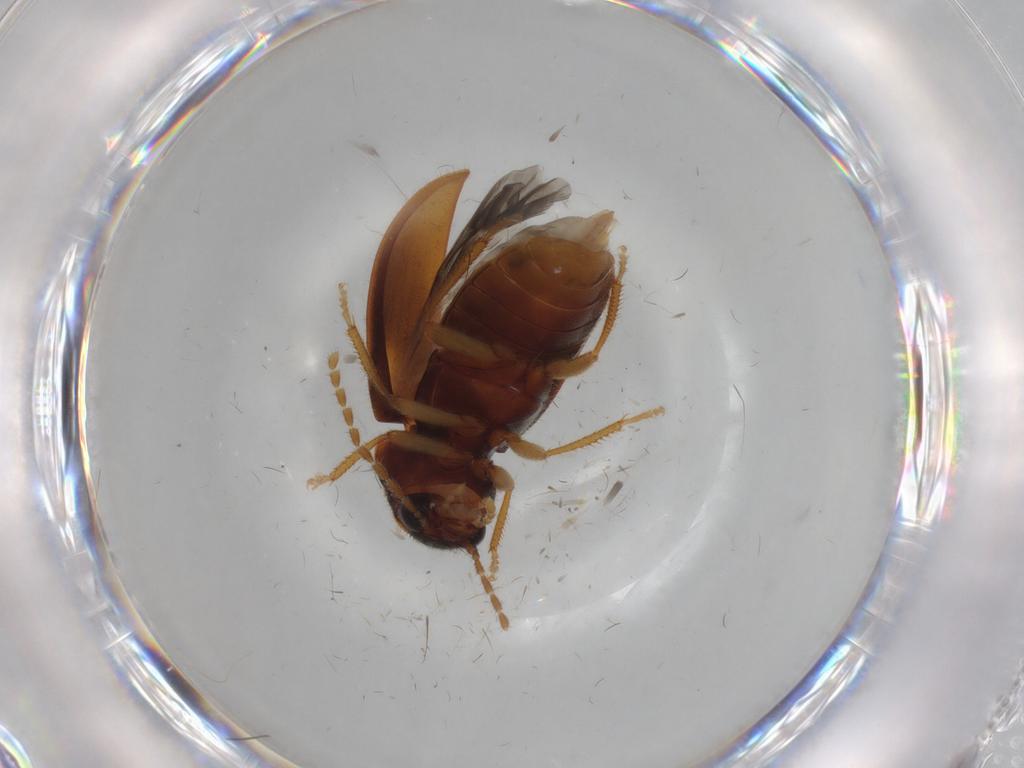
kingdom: Animalia
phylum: Arthropoda
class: Insecta
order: Coleoptera
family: Ptilodactylidae
